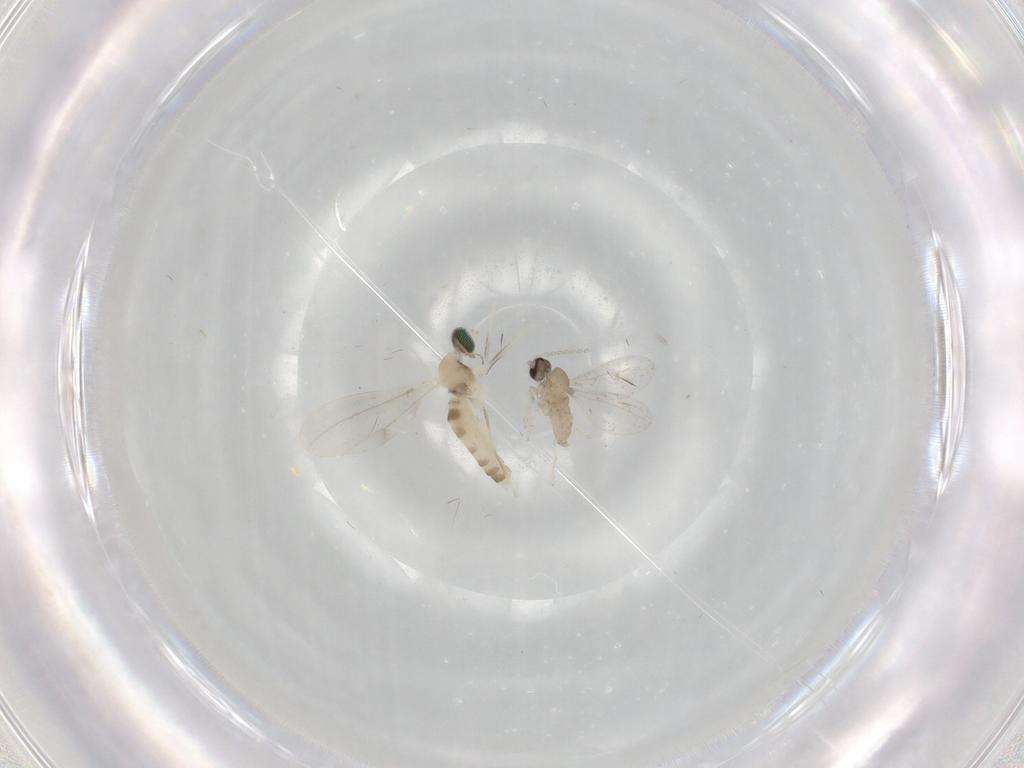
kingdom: Animalia
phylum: Arthropoda
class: Insecta
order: Diptera
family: Cecidomyiidae
